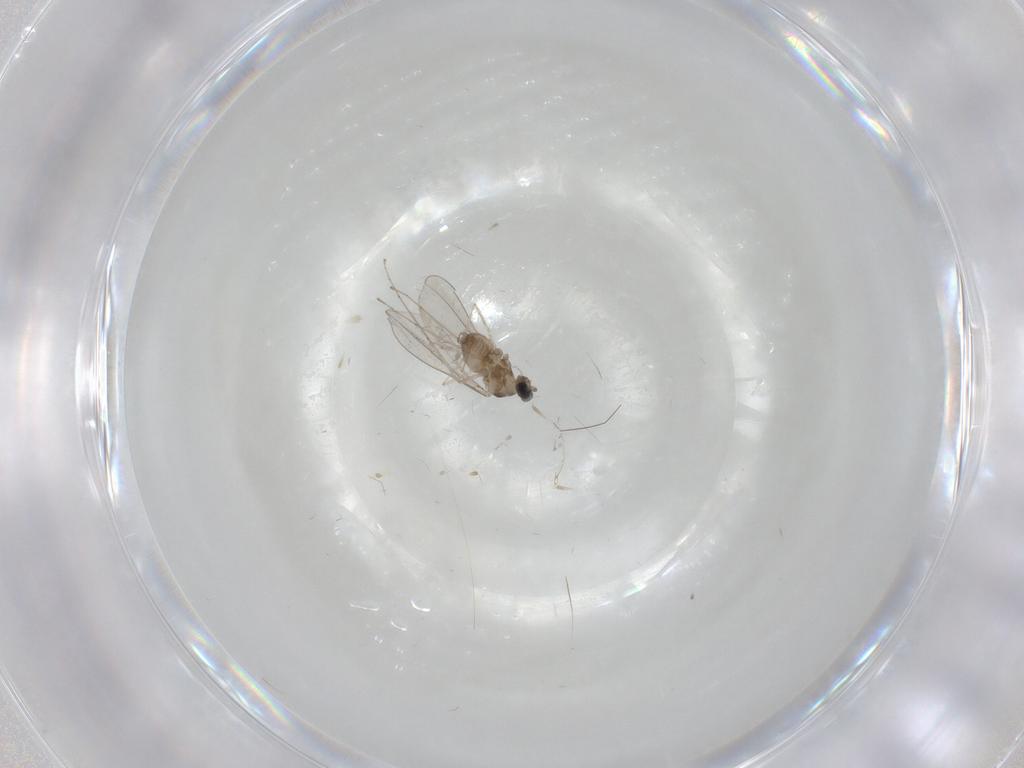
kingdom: Animalia
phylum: Arthropoda
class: Insecta
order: Diptera
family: Cecidomyiidae
